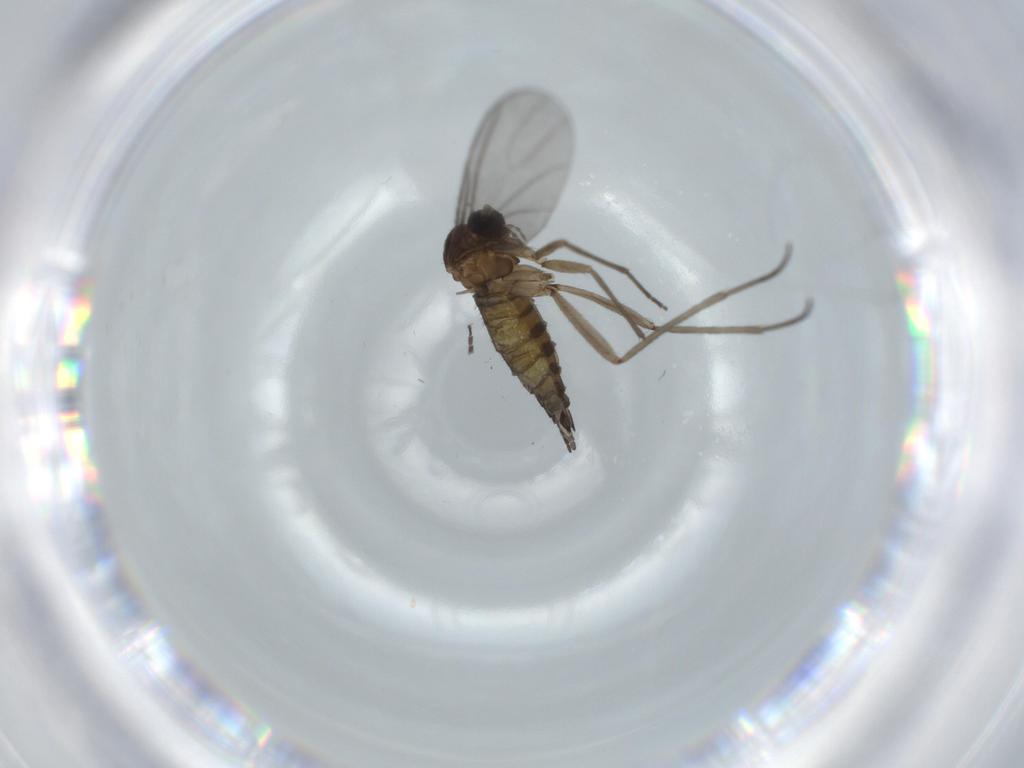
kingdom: Animalia
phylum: Arthropoda
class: Insecta
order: Diptera
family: Sciaridae
